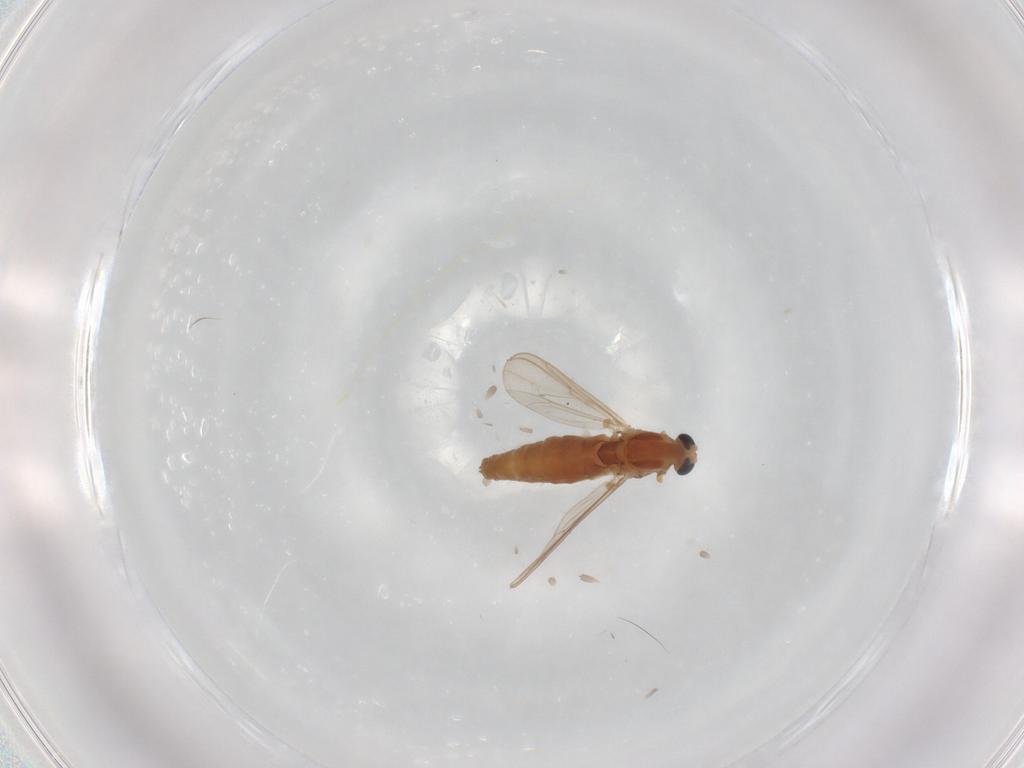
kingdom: Animalia
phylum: Arthropoda
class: Insecta
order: Diptera
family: Chironomidae
